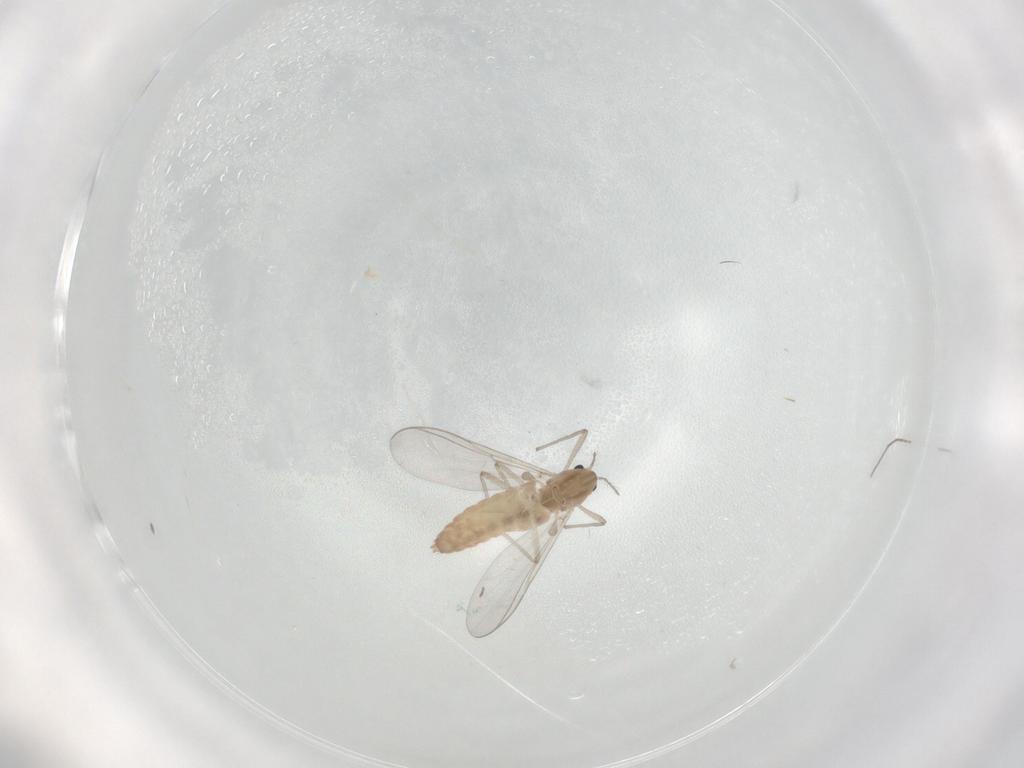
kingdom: Animalia
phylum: Arthropoda
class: Insecta
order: Diptera
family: Chironomidae
